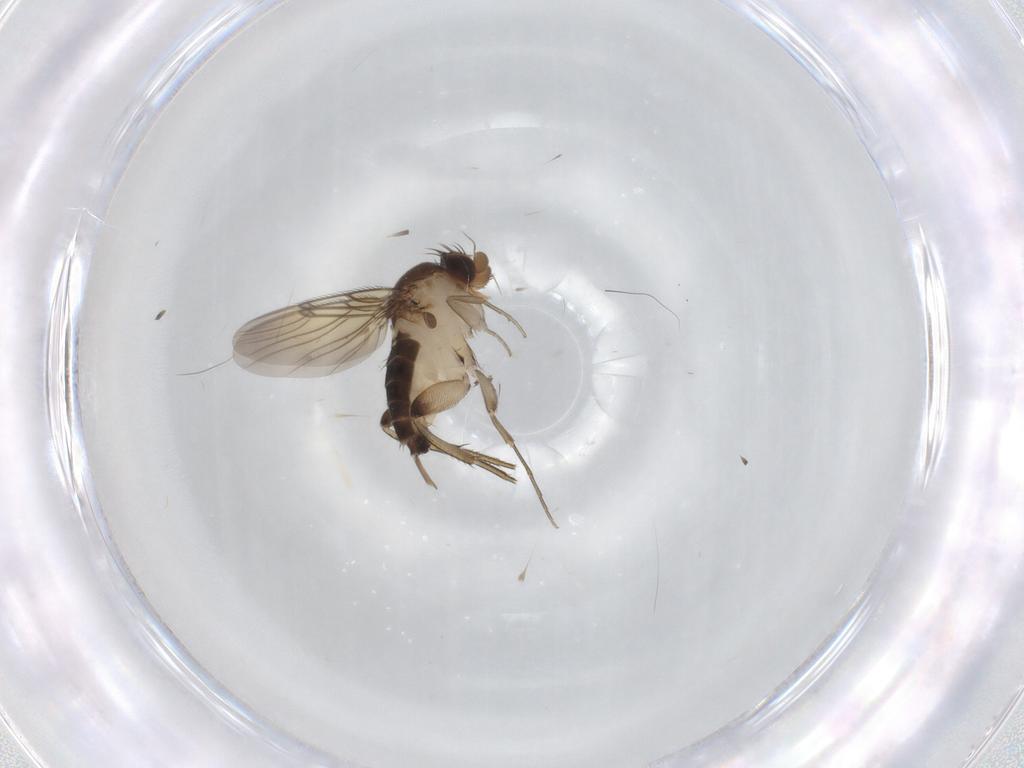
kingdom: Animalia
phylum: Arthropoda
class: Insecta
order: Diptera
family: Phoridae
